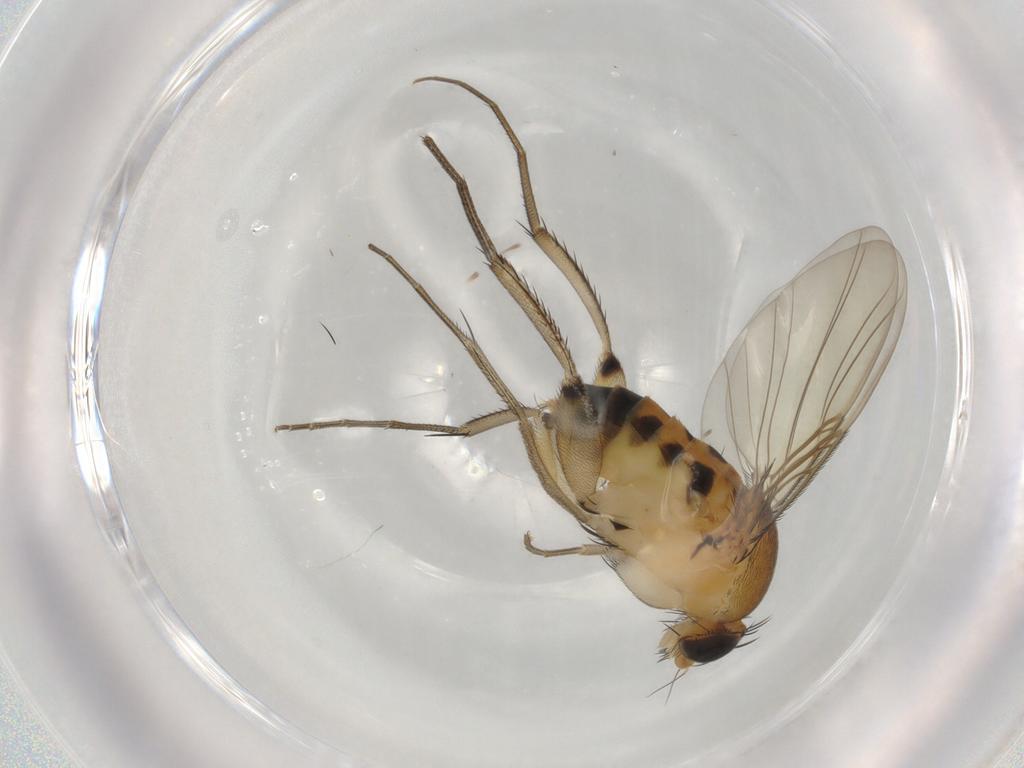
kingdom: Animalia
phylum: Arthropoda
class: Insecta
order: Diptera
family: Phoridae
